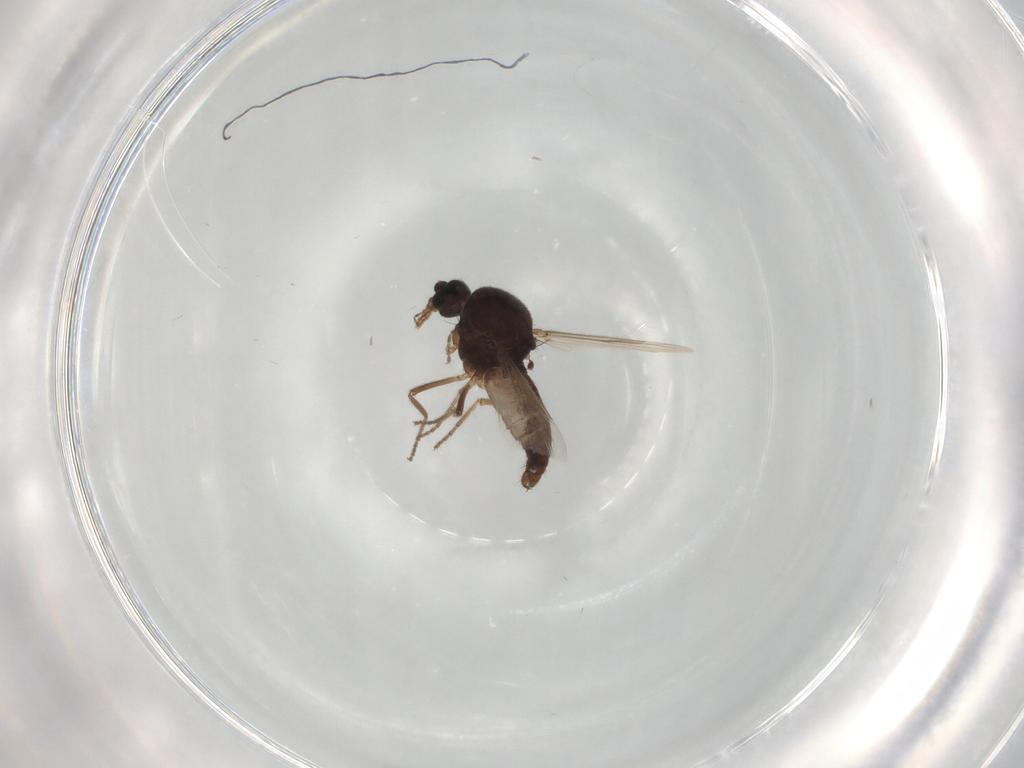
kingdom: Animalia
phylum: Arthropoda
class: Insecta
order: Diptera
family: Ceratopogonidae
